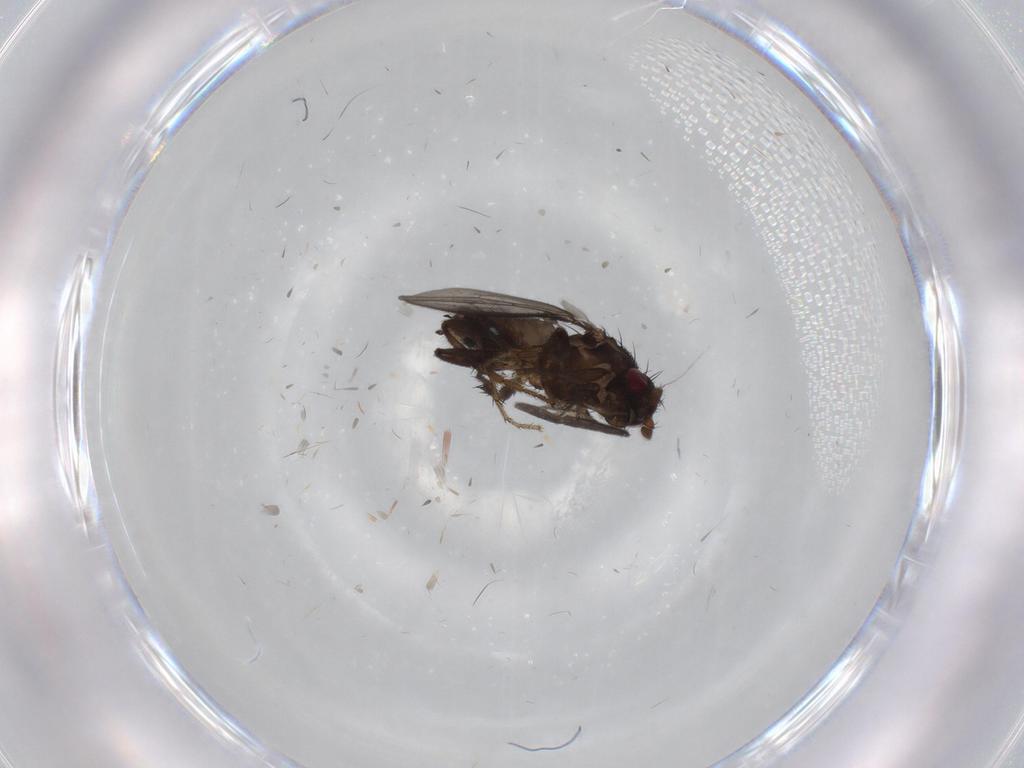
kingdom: Animalia
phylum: Arthropoda
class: Insecta
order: Diptera
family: Sphaeroceridae
